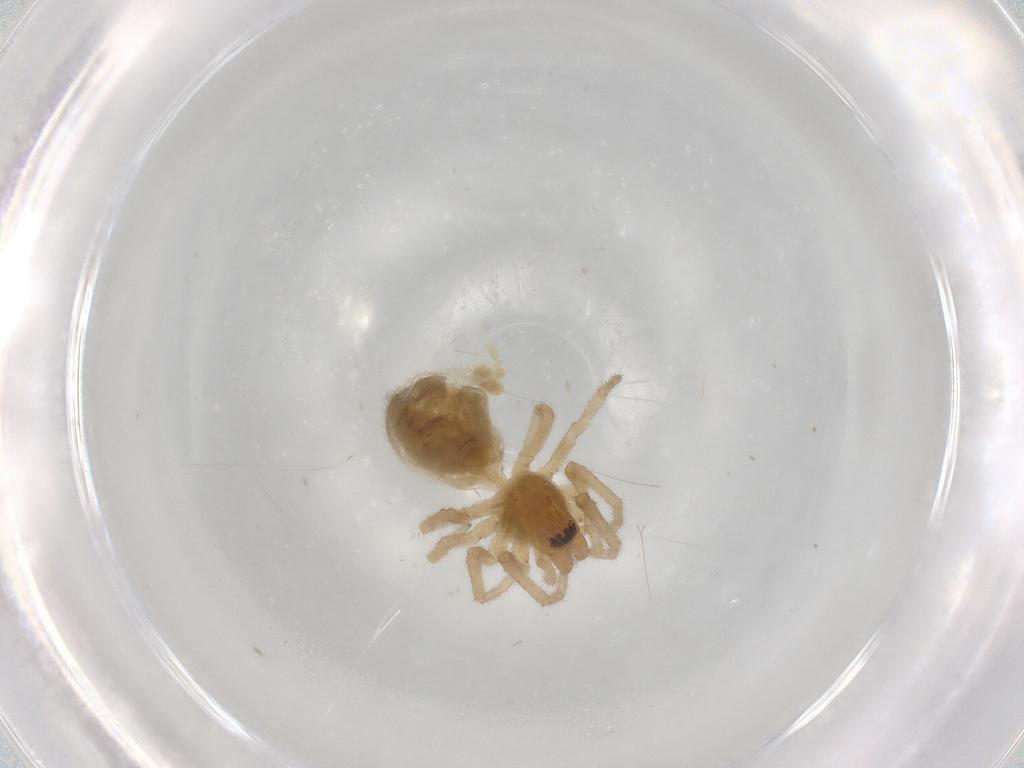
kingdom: Animalia
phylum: Arthropoda
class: Arachnida
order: Araneae
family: Trachelidae
